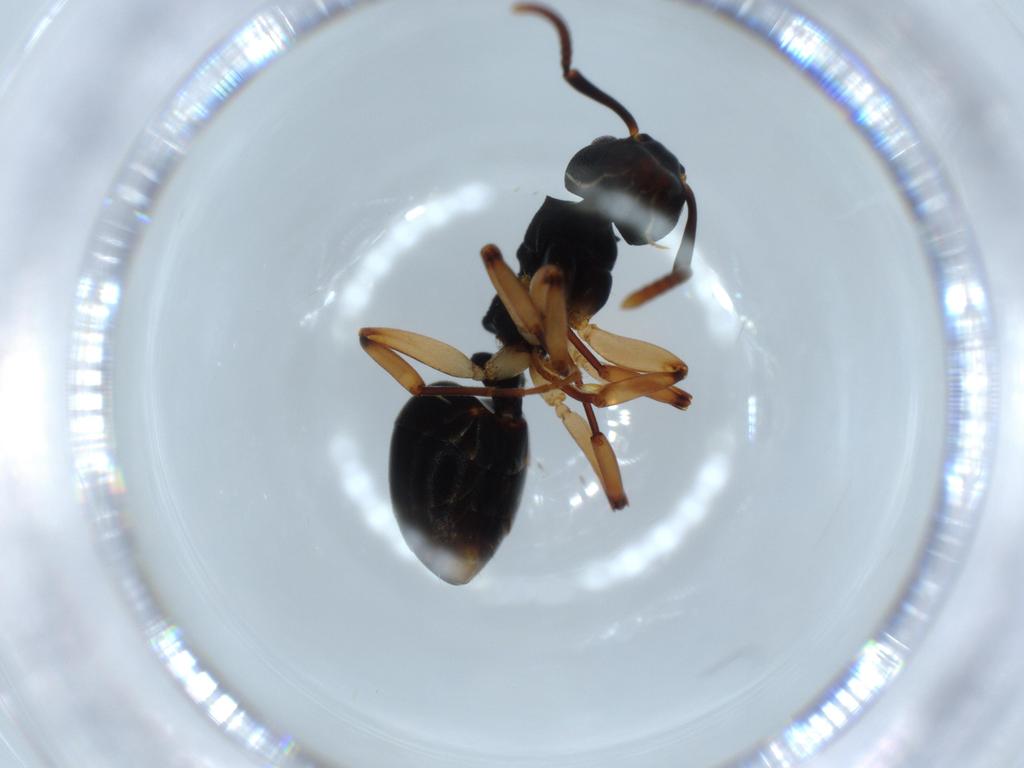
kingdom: Animalia
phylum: Arthropoda
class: Insecta
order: Hymenoptera
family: Formicidae
